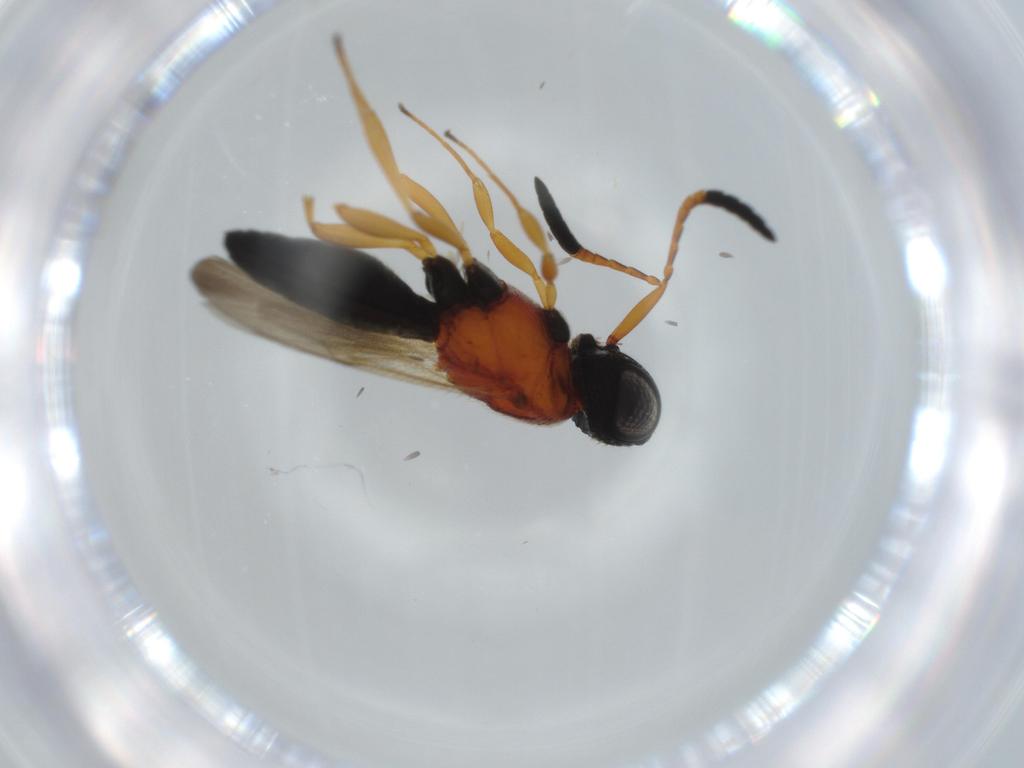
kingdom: Animalia
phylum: Arthropoda
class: Insecta
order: Hymenoptera
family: Scelionidae
